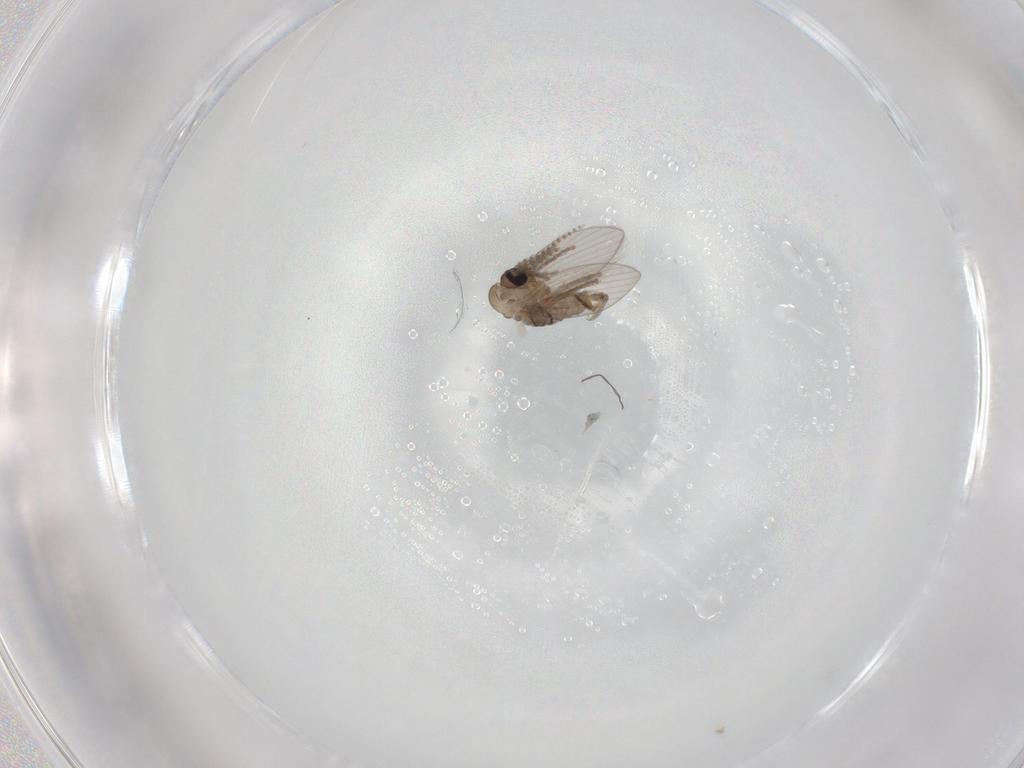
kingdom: Animalia
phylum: Arthropoda
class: Insecta
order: Diptera
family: Psychodidae
